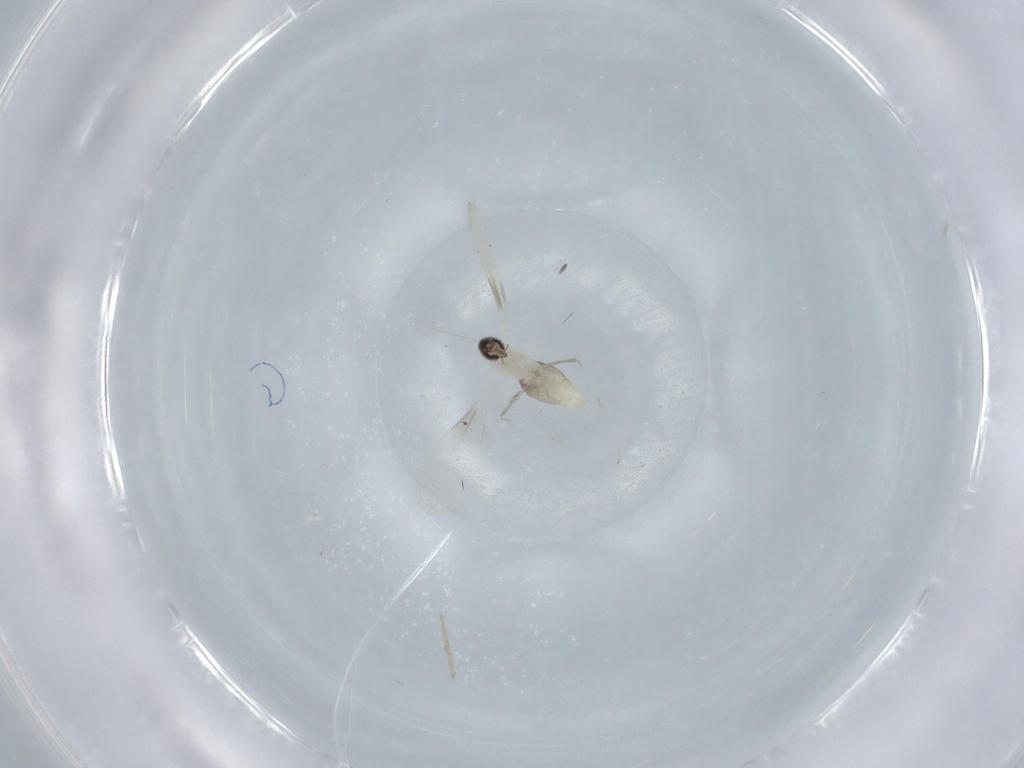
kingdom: Animalia
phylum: Arthropoda
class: Insecta
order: Diptera
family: Cecidomyiidae
